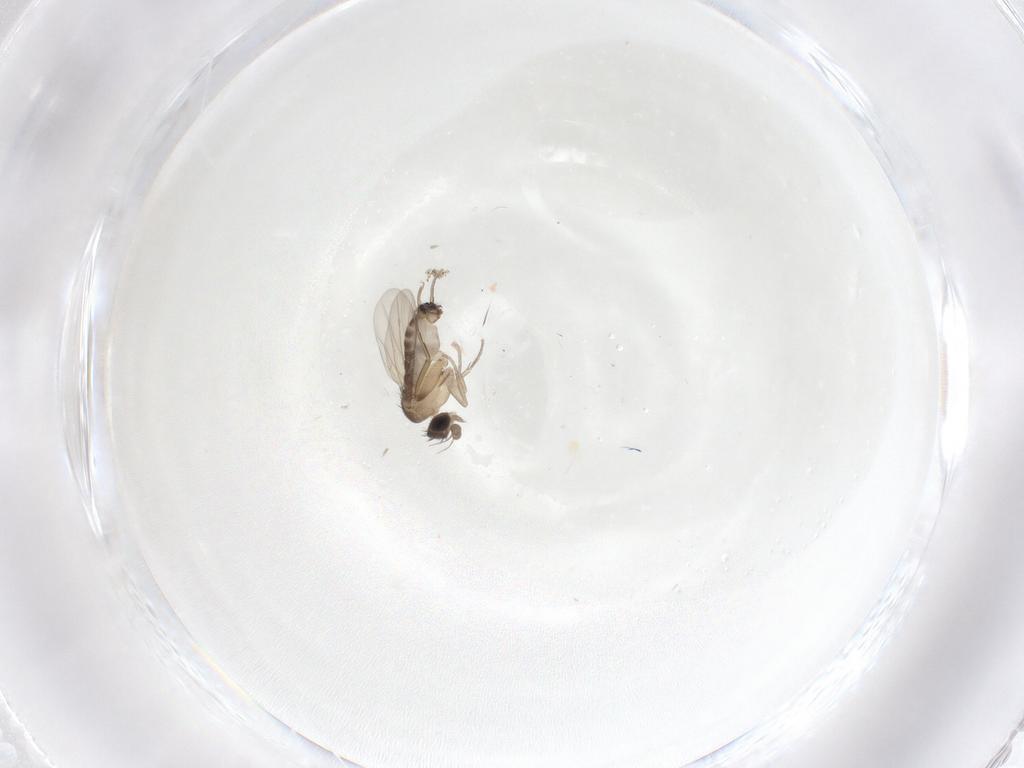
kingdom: Animalia
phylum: Arthropoda
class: Insecta
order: Diptera
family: Phoridae
